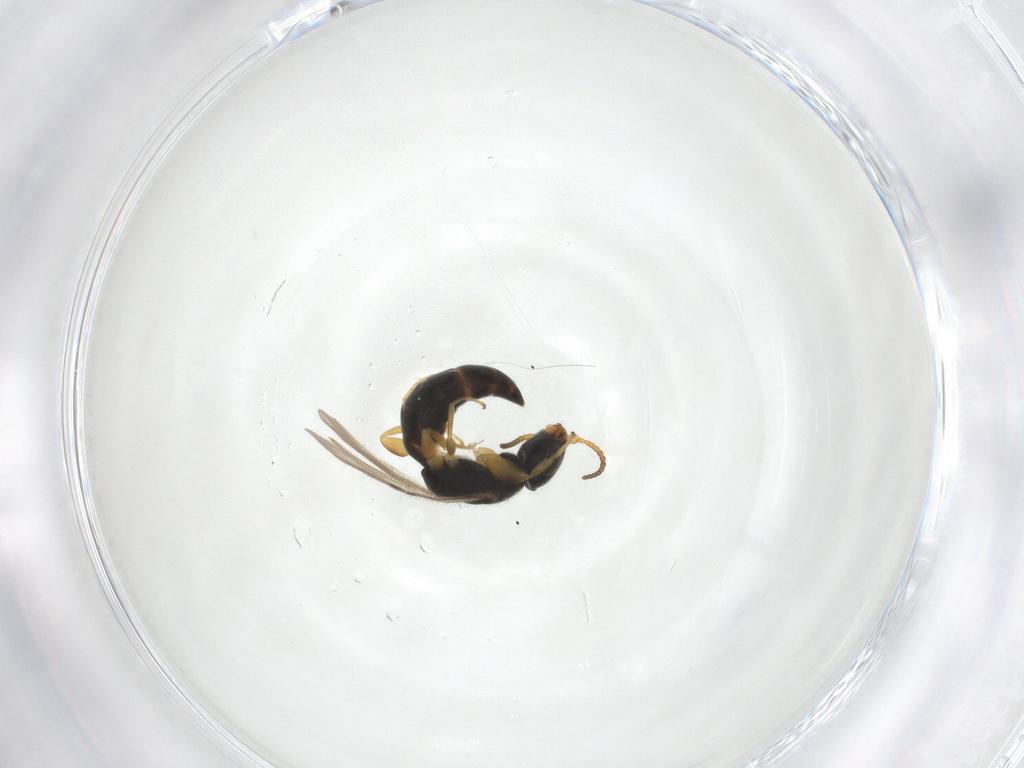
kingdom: Animalia
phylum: Arthropoda
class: Insecta
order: Hymenoptera
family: Bethylidae
